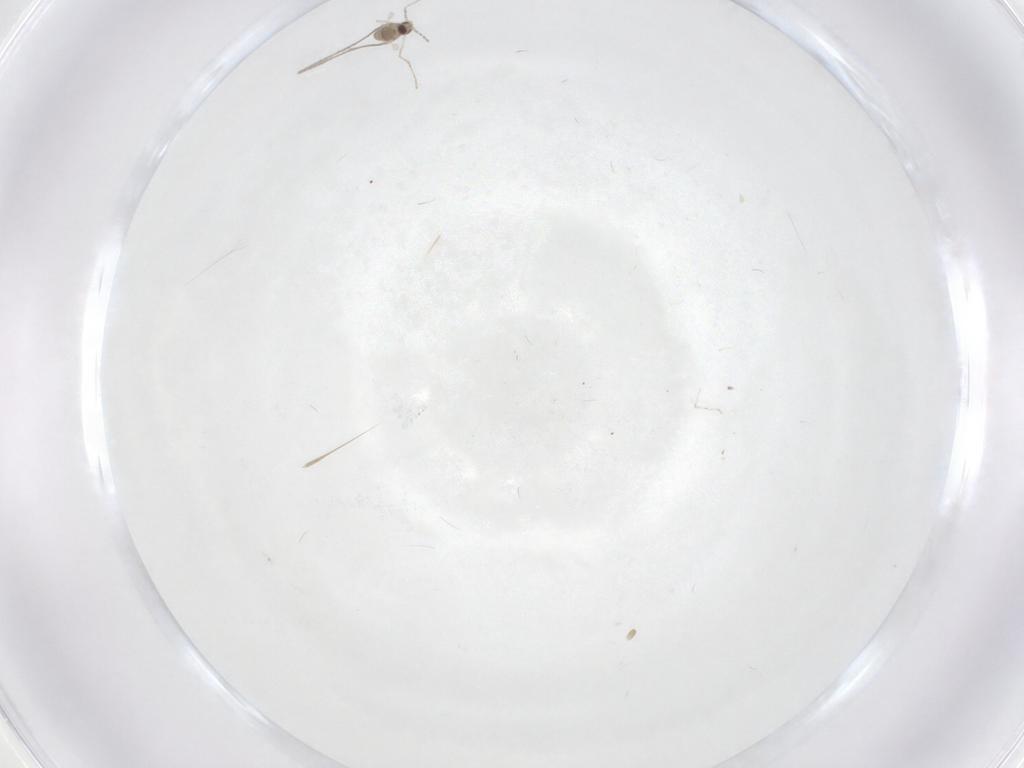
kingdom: Animalia
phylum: Arthropoda
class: Insecta
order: Diptera
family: Cecidomyiidae
